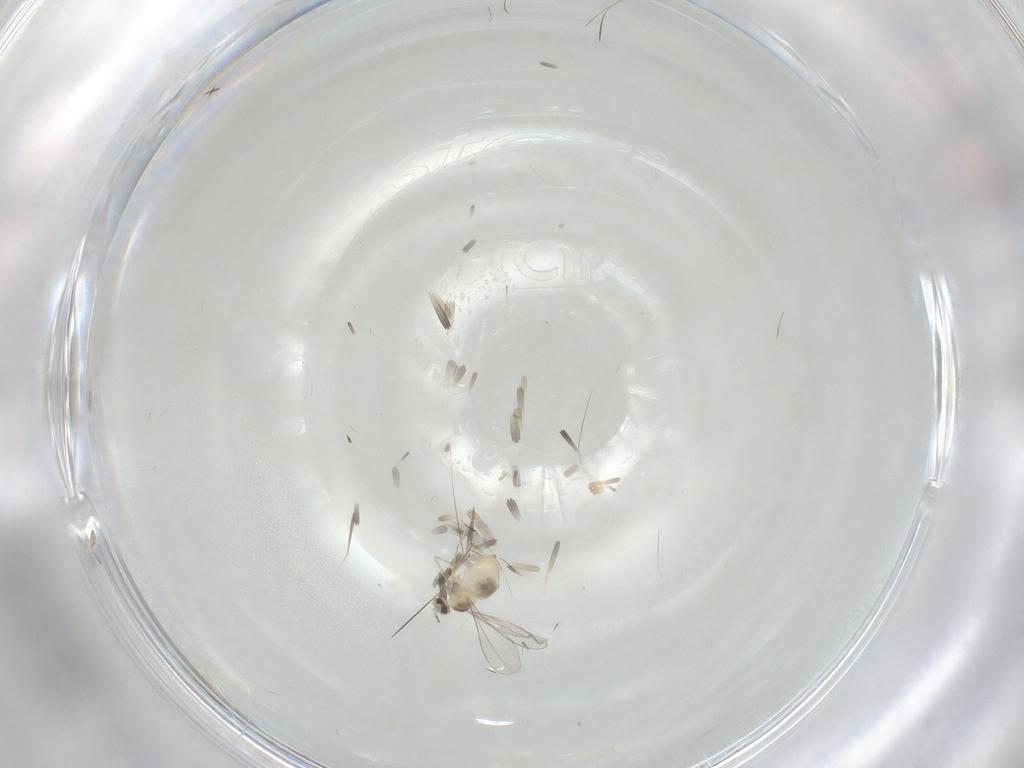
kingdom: Animalia
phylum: Arthropoda
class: Insecta
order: Diptera
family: Cecidomyiidae
